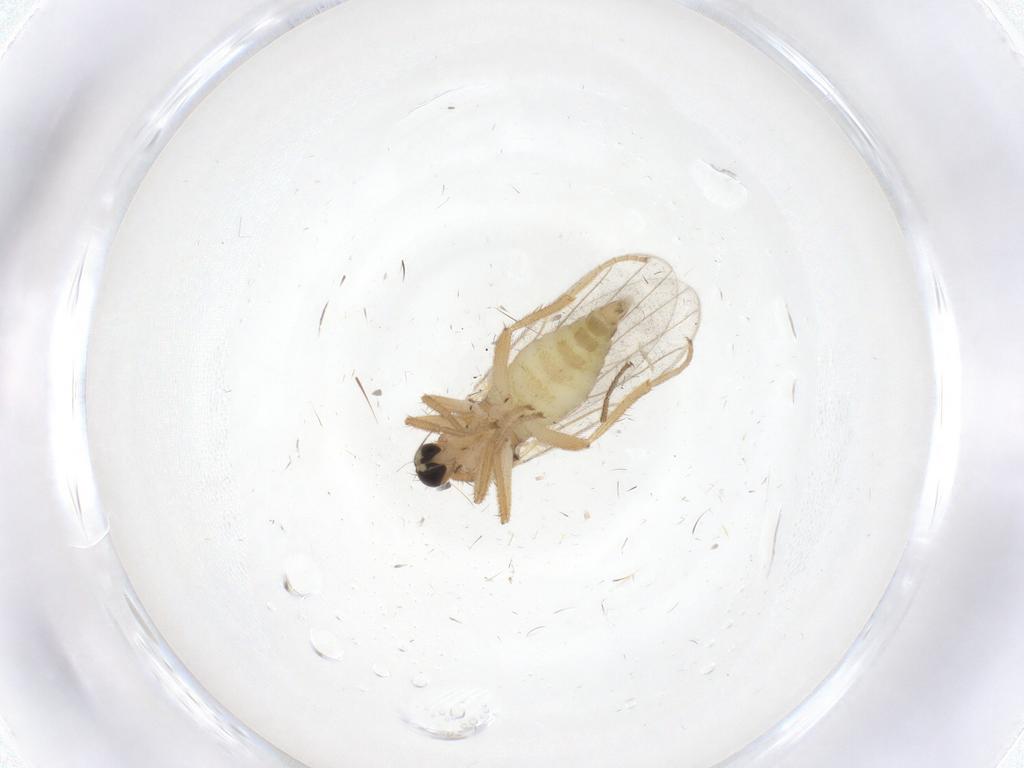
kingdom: Animalia
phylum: Arthropoda
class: Insecta
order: Diptera
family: Hybotidae
